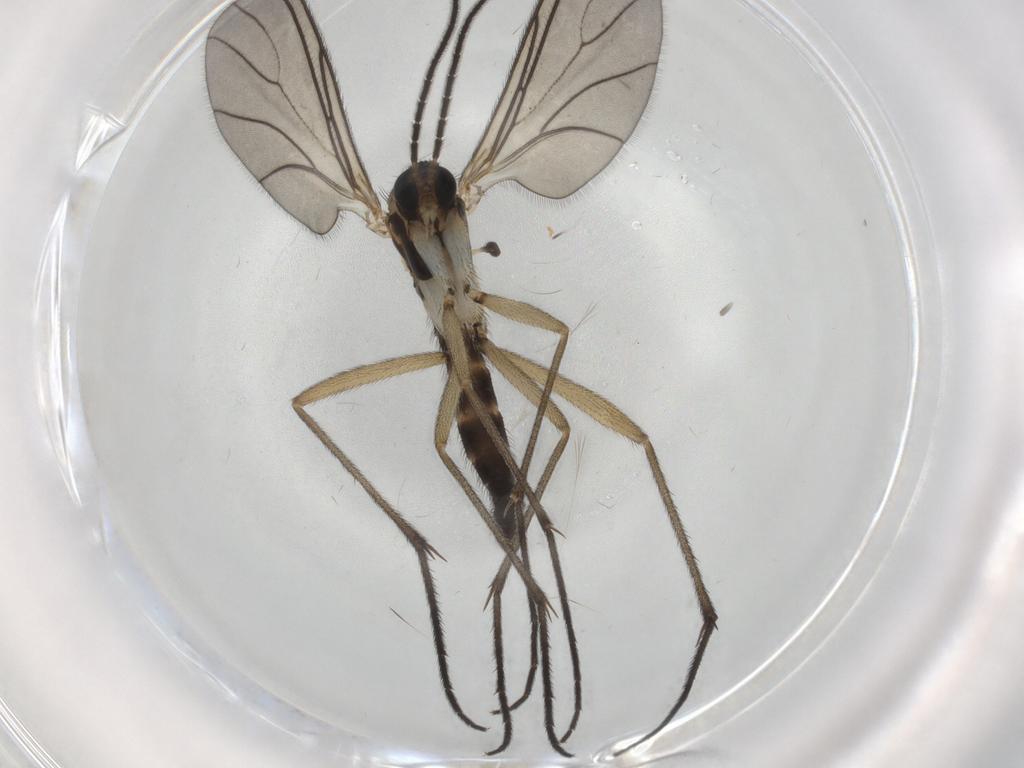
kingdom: Animalia
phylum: Arthropoda
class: Insecta
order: Diptera
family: Sciaridae
